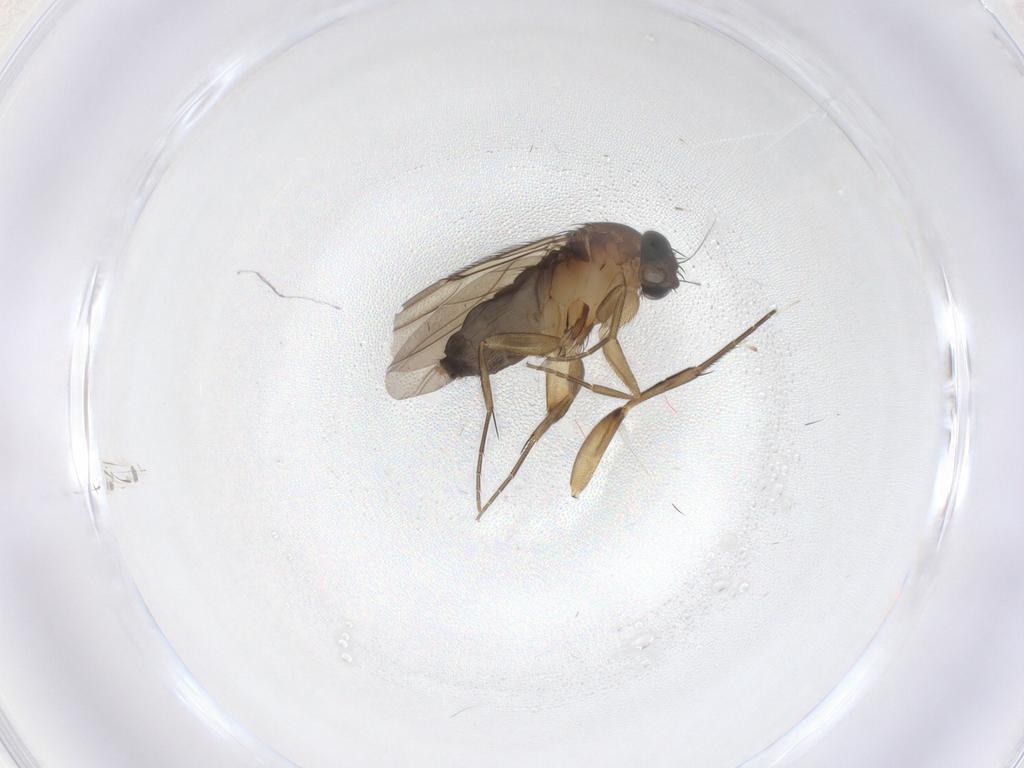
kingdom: Animalia
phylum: Arthropoda
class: Insecta
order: Diptera
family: Phoridae
